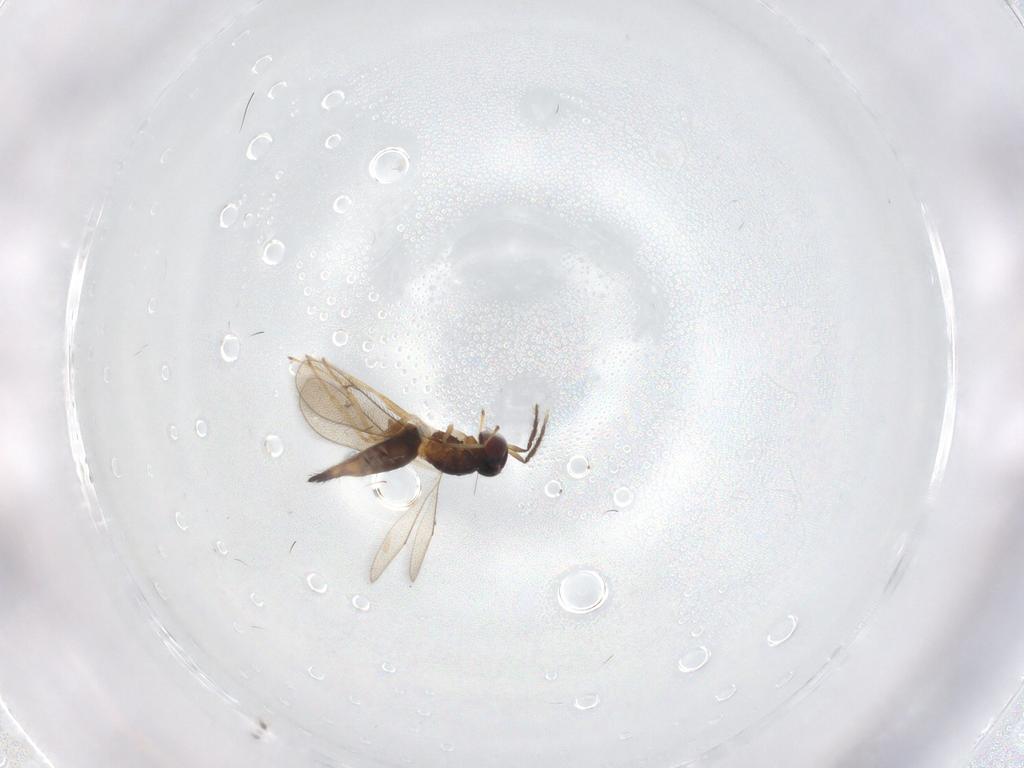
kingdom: Animalia
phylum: Arthropoda
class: Insecta
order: Hymenoptera
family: Eulophidae
